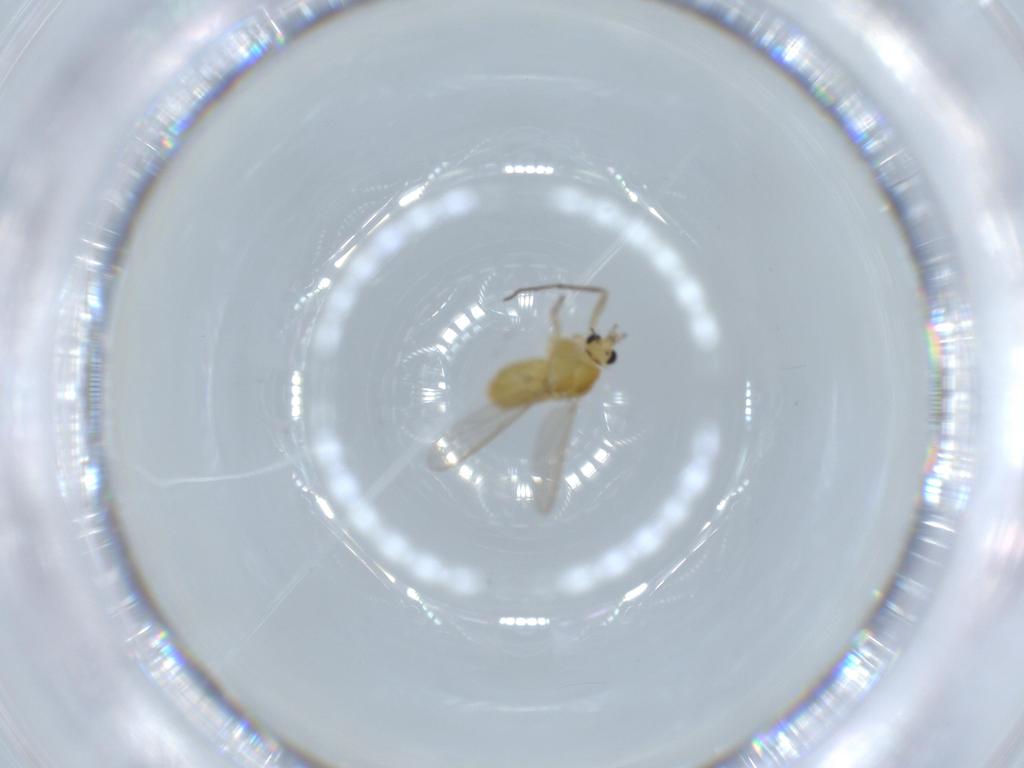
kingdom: Animalia
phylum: Arthropoda
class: Insecta
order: Diptera
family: Chironomidae
